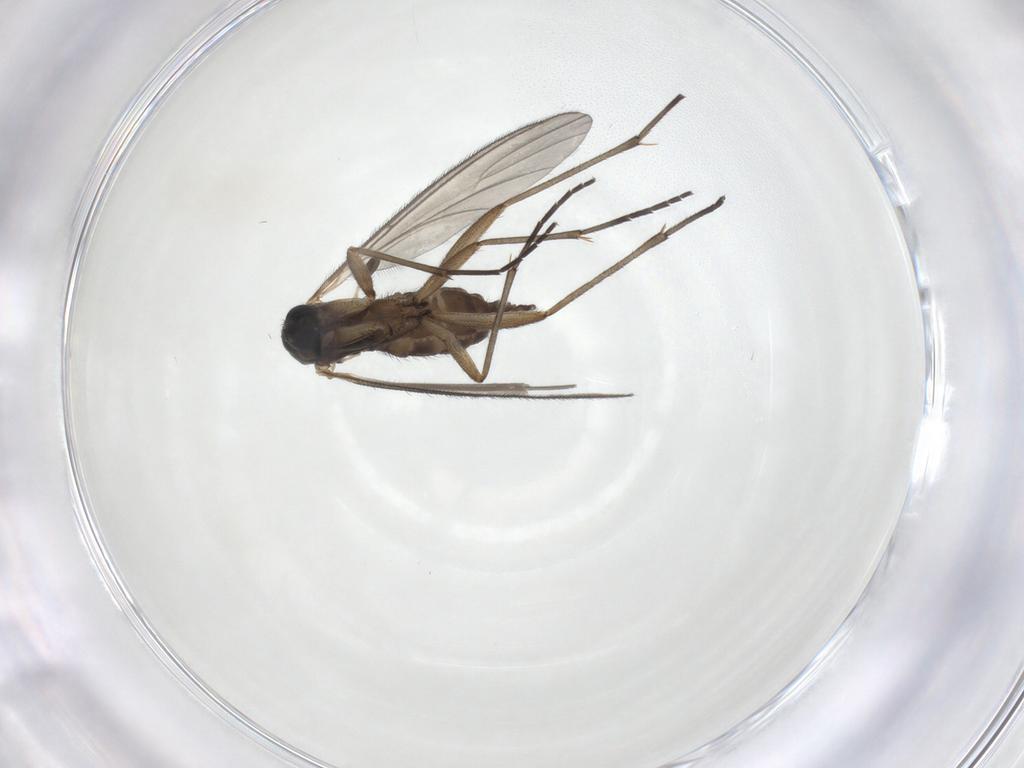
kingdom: Animalia
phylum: Arthropoda
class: Insecta
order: Diptera
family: Sciaridae
